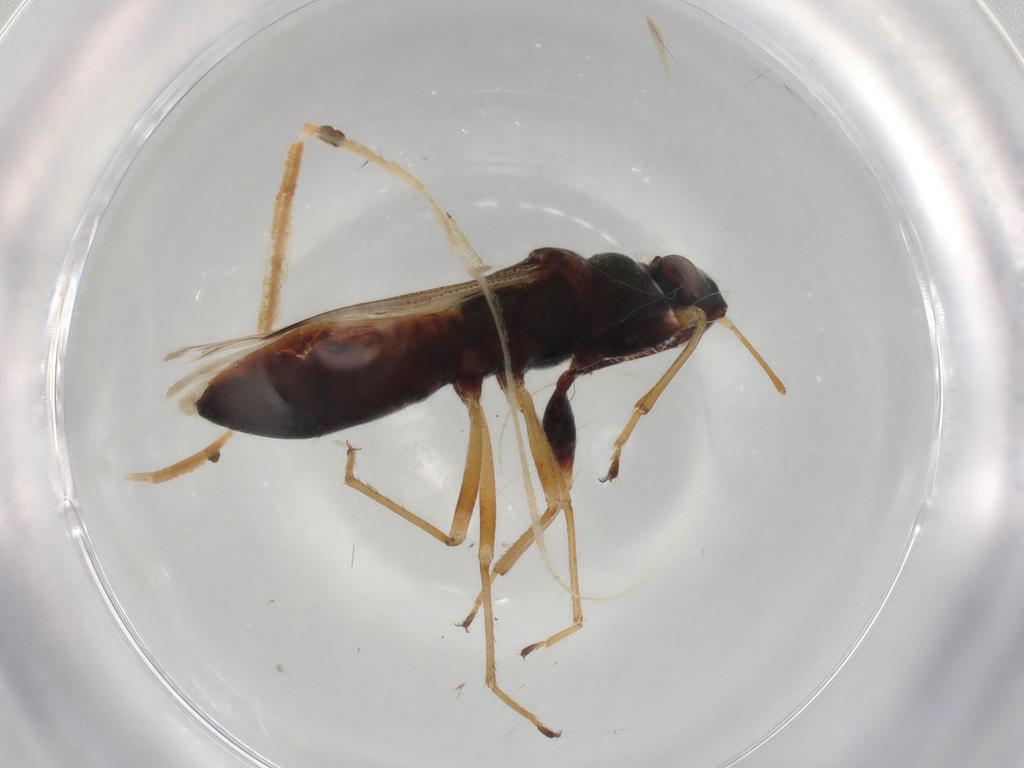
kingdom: Animalia
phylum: Arthropoda
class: Insecta
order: Hemiptera
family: Rhyparochromidae
